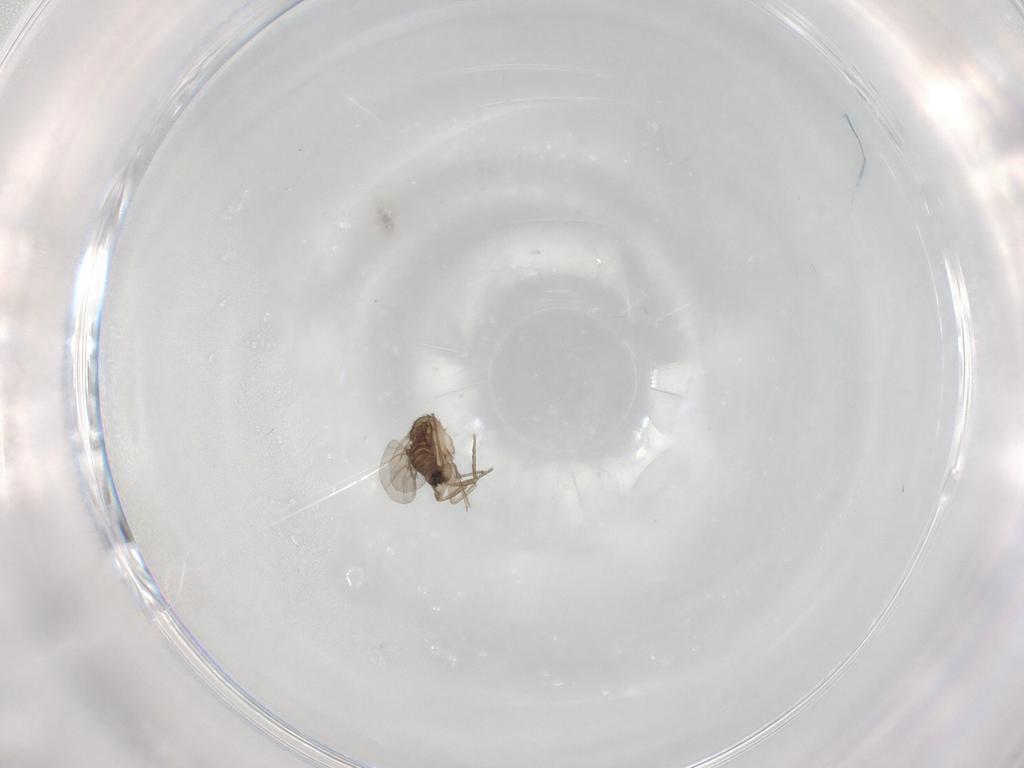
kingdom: Animalia
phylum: Arthropoda
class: Insecta
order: Diptera
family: Phoridae
